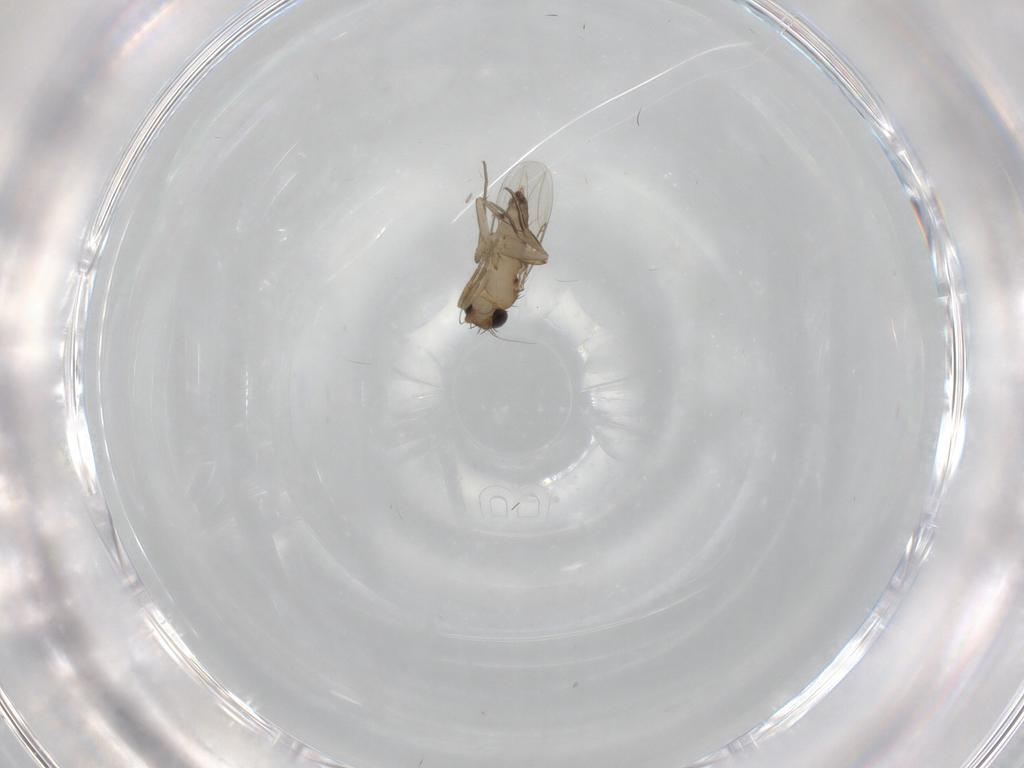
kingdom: Animalia
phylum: Arthropoda
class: Insecta
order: Diptera
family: Phoridae
